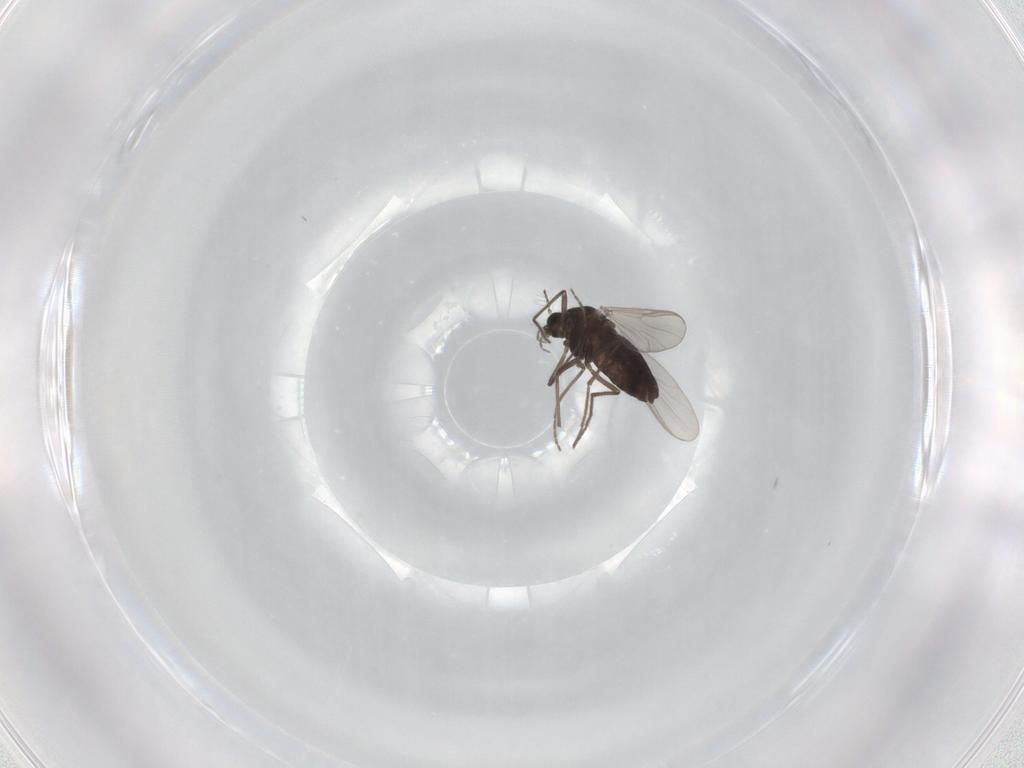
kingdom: Animalia
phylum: Arthropoda
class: Insecta
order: Diptera
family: Chironomidae
